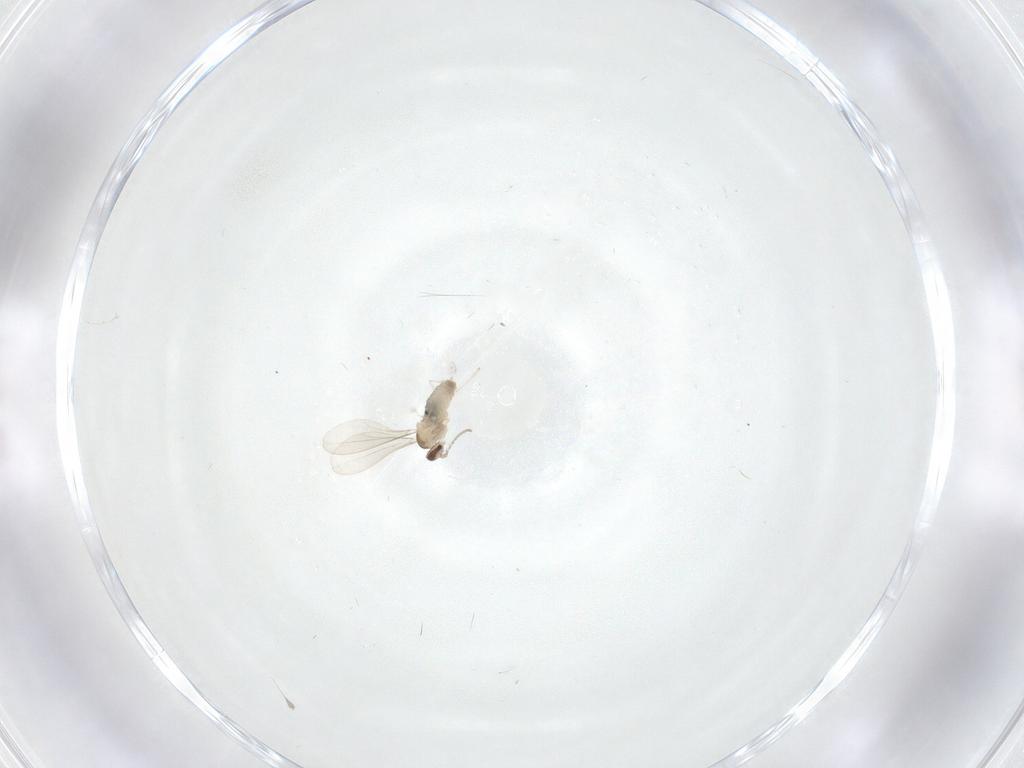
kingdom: Animalia
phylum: Arthropoda
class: Insecta
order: Diptera
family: Cecidomyiidae
